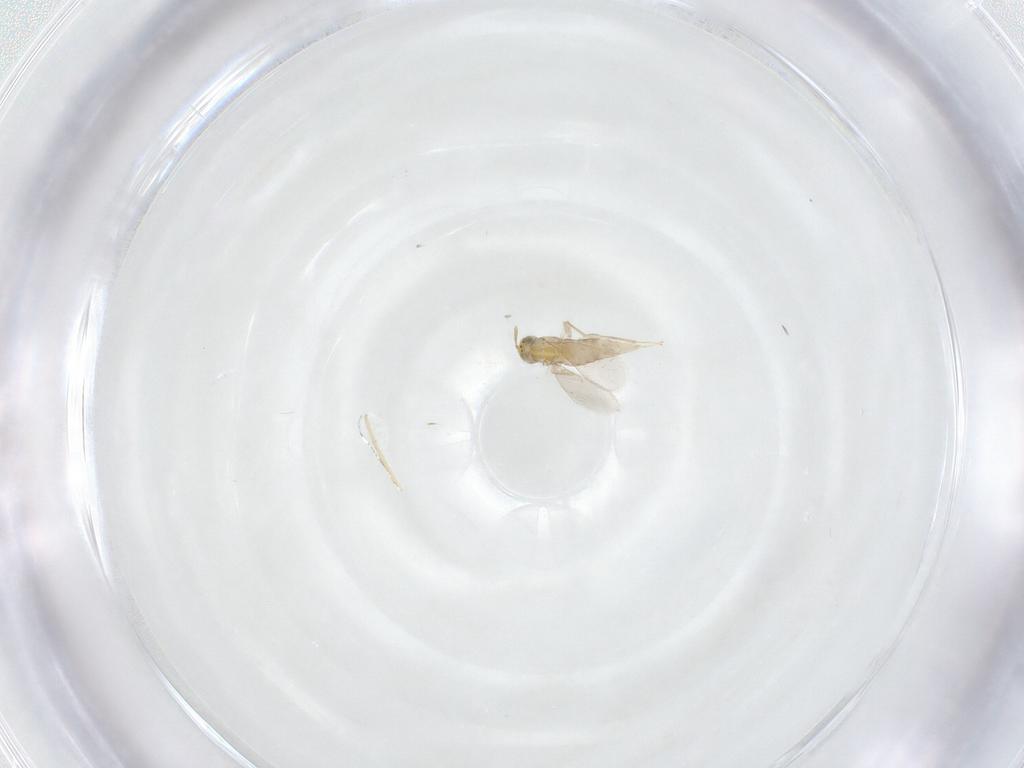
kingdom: Animalia
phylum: Arthropoda
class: Insecta
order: Hymenoptera
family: Aphelinidae
